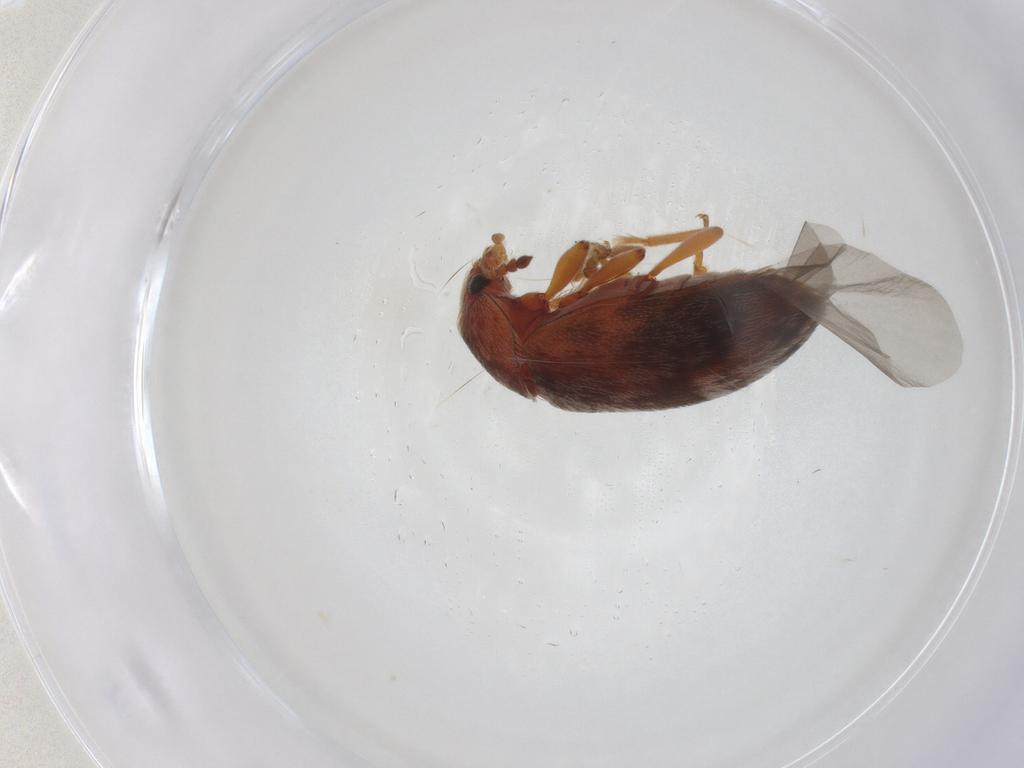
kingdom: Animalia
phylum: Arthropoda
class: Insecta
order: Coleoptera
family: Byturidae
